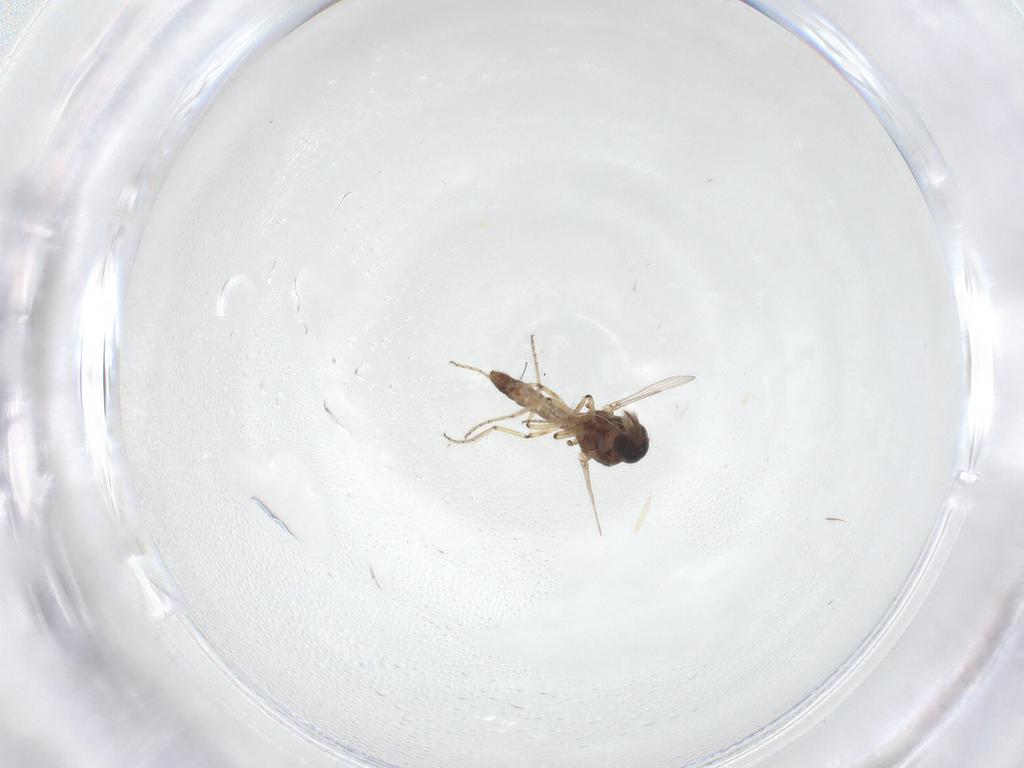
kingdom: Animalia
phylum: Arthropoda
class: Insecta
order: Diptera
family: Ceratopogonidae
